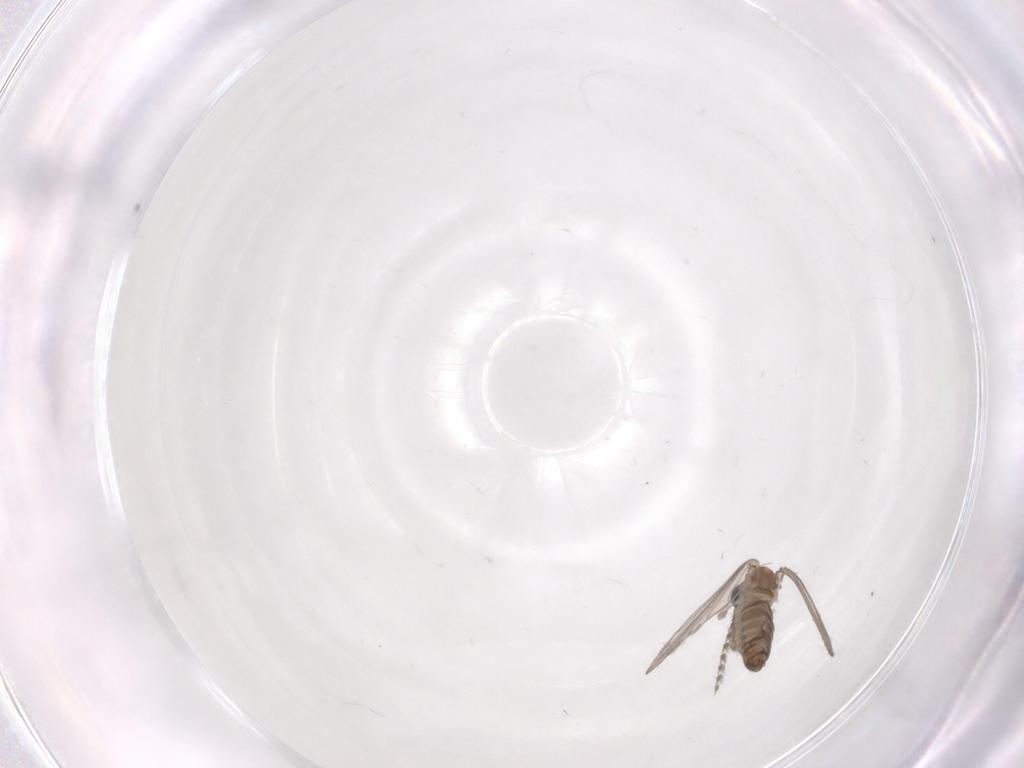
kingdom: Animalia
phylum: Arthropoda
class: Insecta
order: Diptera
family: Psychodidae
